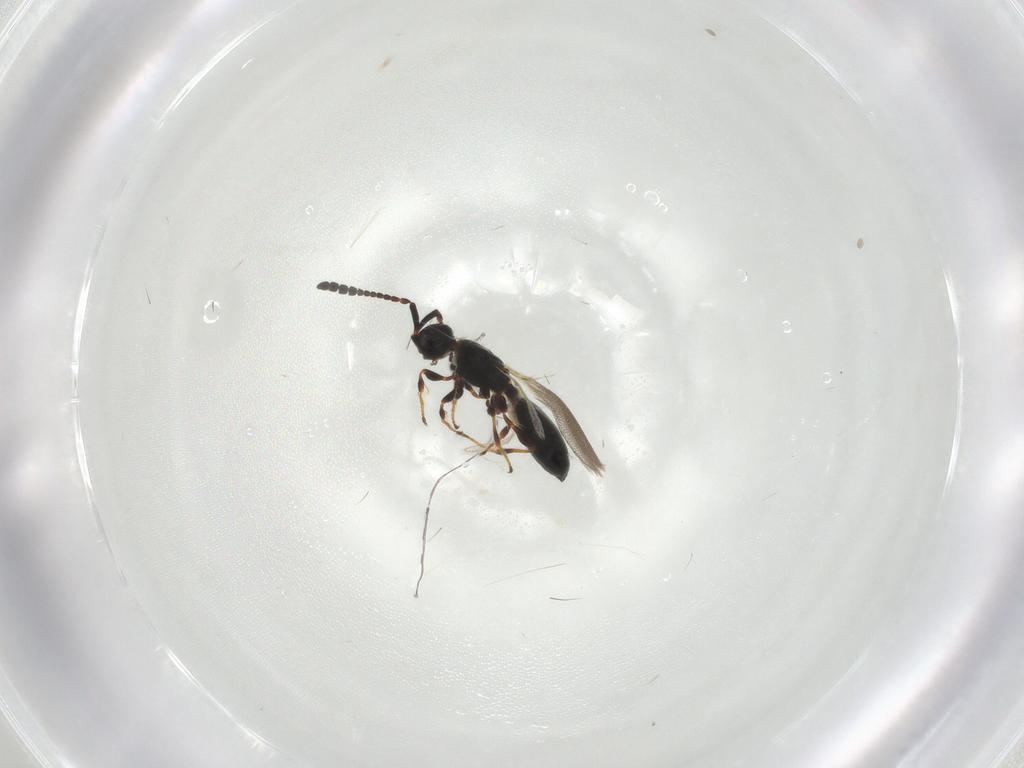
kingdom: Animalia
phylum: Arthropoda
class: Insecta
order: Hymenoptera
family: Diapriidae
